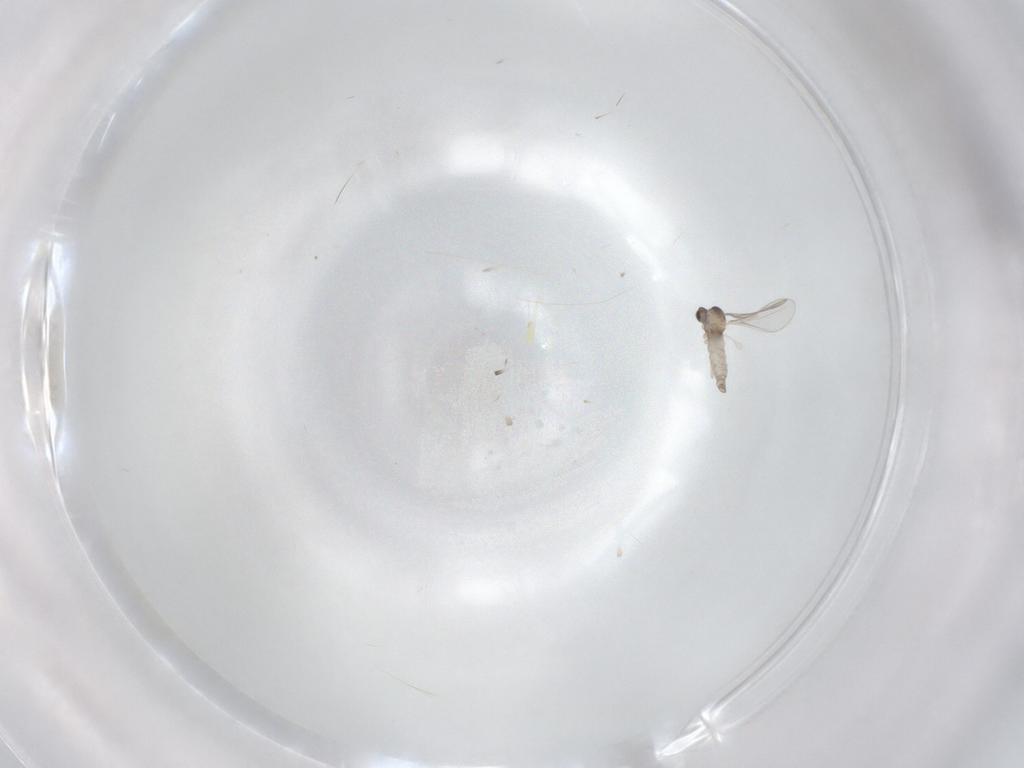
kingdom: Animalia
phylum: Arthropoda
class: Insecta
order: Diptera
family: Cecidomyiidae
